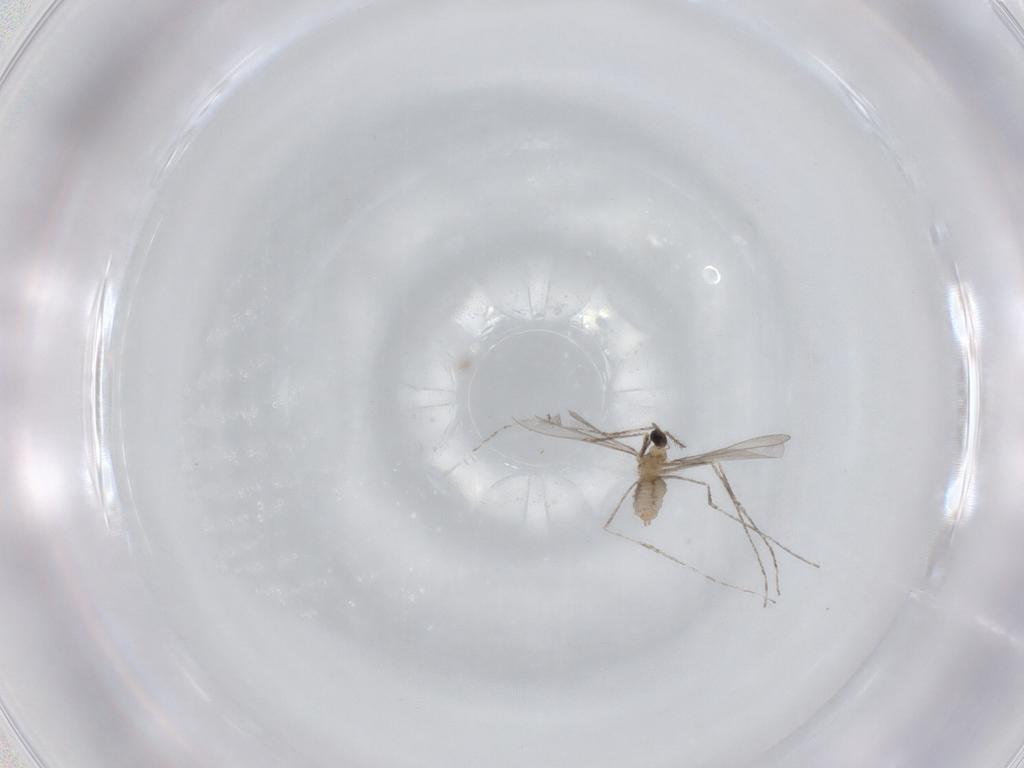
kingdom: Animalia
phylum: Arthropoda
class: Insecta
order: Diptera
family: Cecidomyiidae
